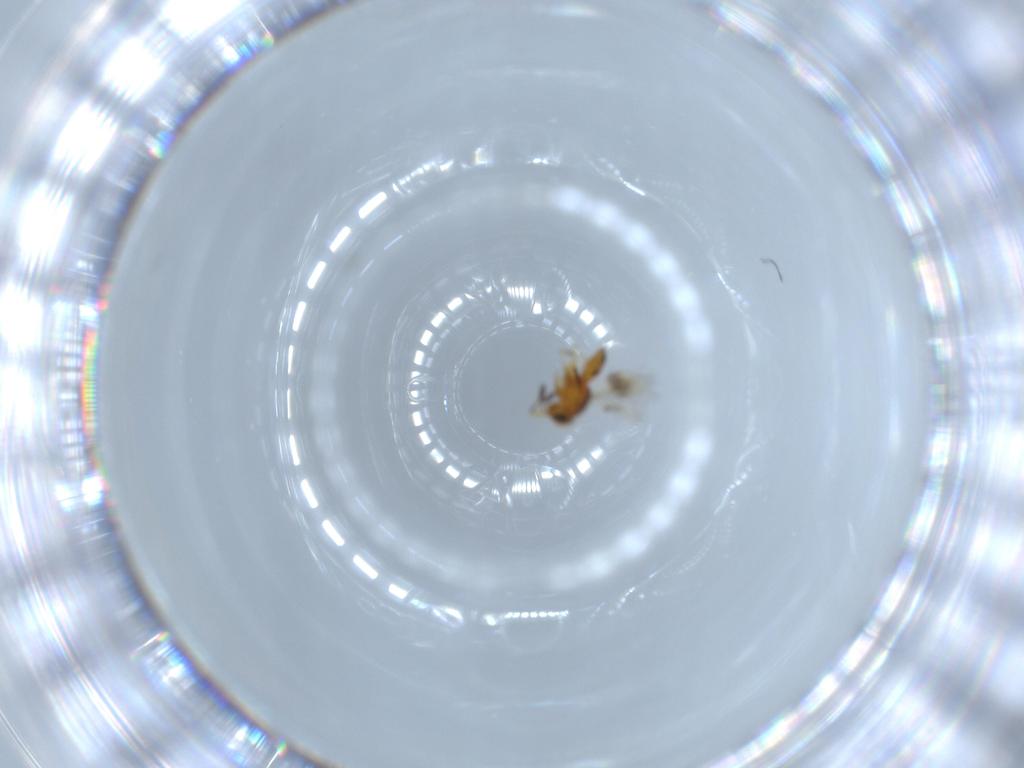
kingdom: Animalia
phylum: Arthropoda
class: Insecta
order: Hymenoptera
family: Scelionidae
